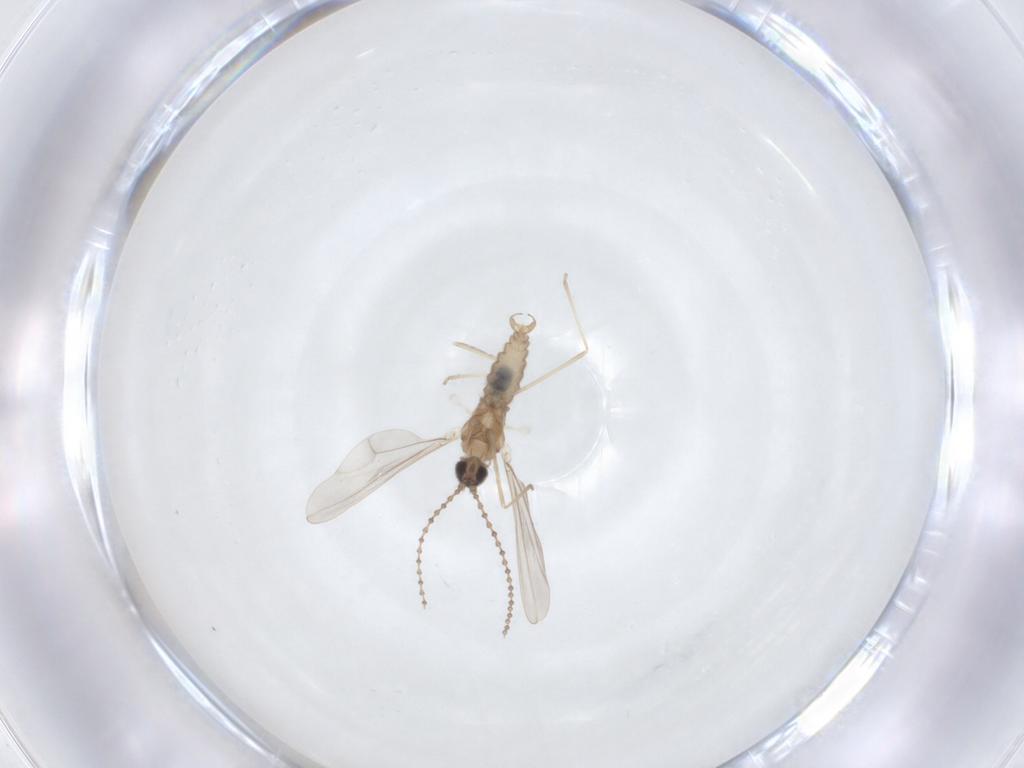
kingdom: Animalia
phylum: Arthropoda
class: Insecta
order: Diptera
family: Cecidomyiidae
